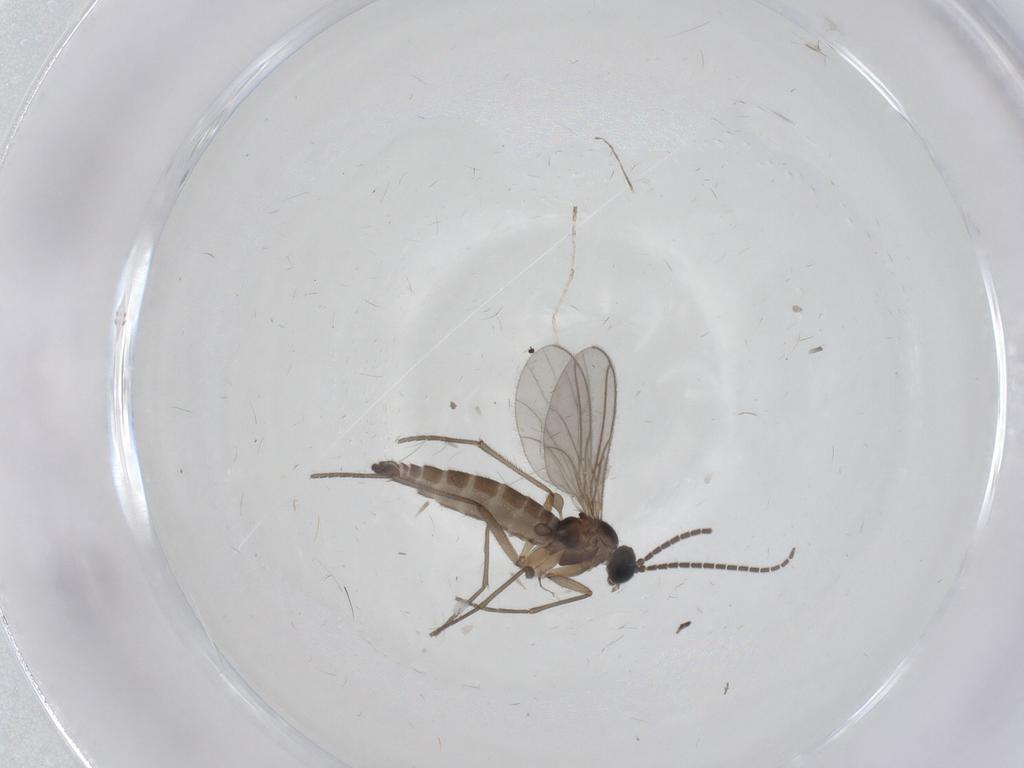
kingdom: Animalia
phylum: Arthropoda
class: Insecta
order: Diptera
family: Sciaridae
